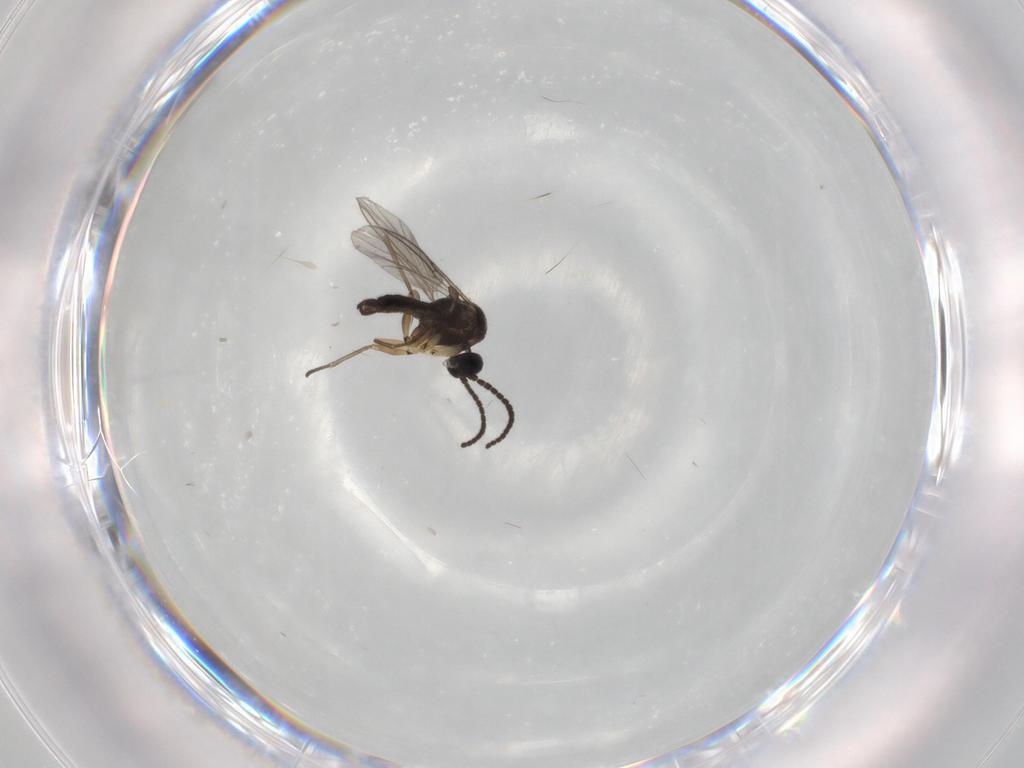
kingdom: Animalia
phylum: Arthropoda
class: Insecta
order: Diptera
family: Sciaridae
